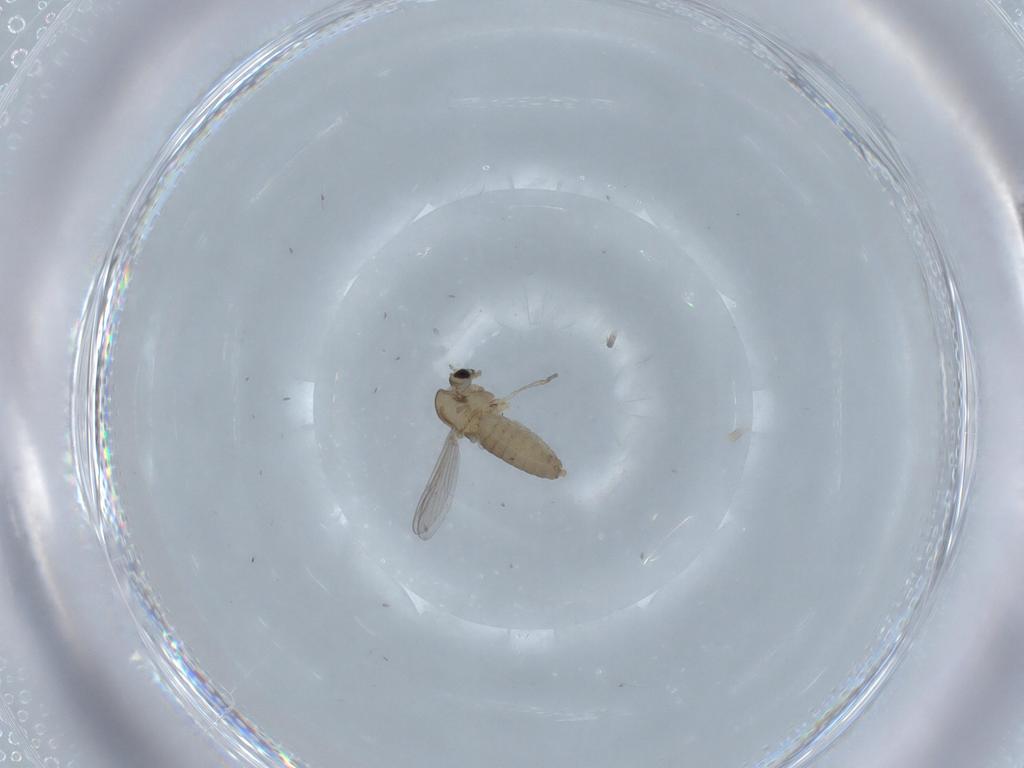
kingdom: Animalia
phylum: Arthropoda
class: Insecta
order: Diptera
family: Chironomidae
